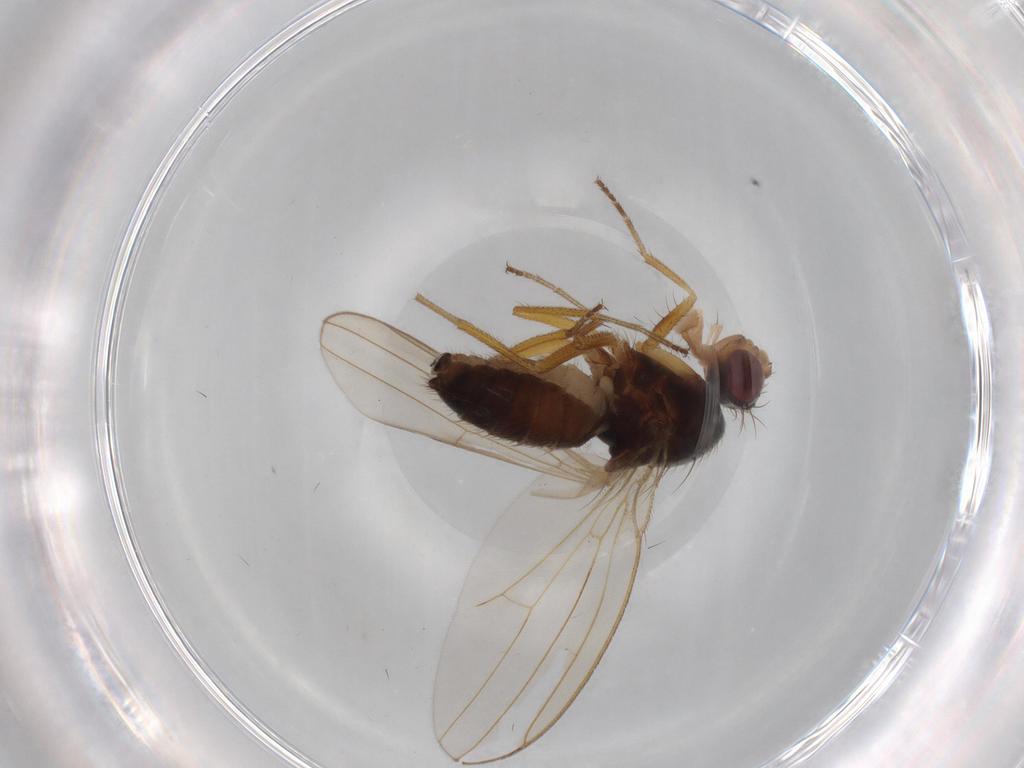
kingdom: Animalia
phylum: Arthropoda
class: Insecta
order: Diptera
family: Drosophilidae
